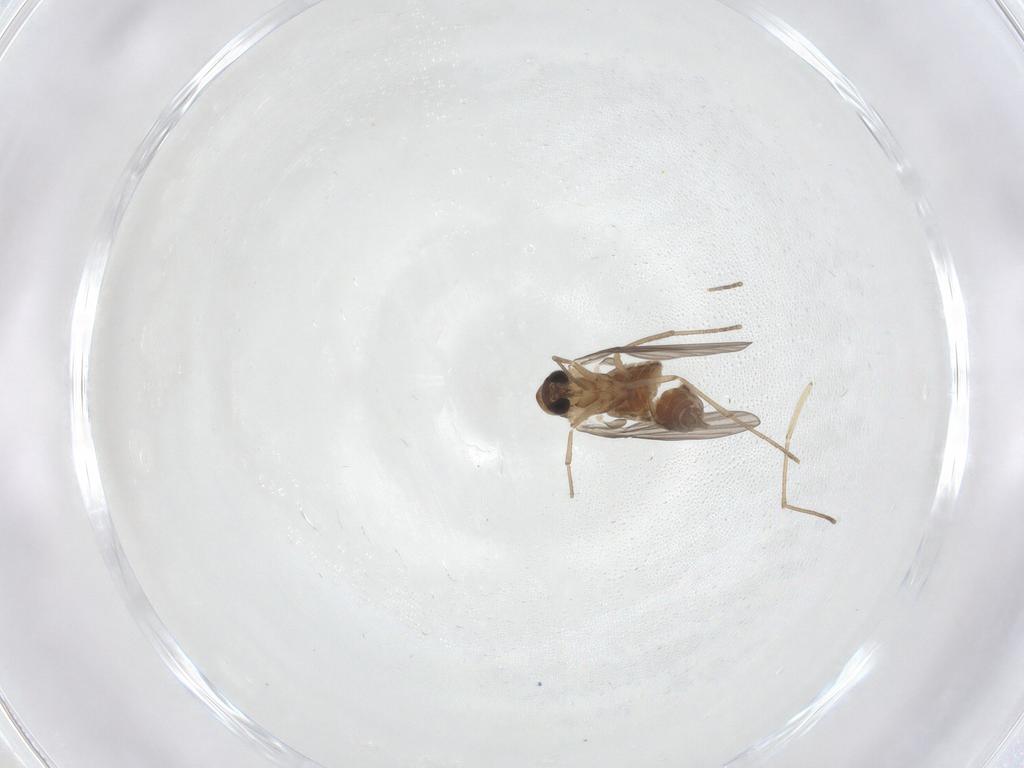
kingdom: Animalia
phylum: Arthropoda
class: Insecta
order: Diptera
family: Psychodidae
